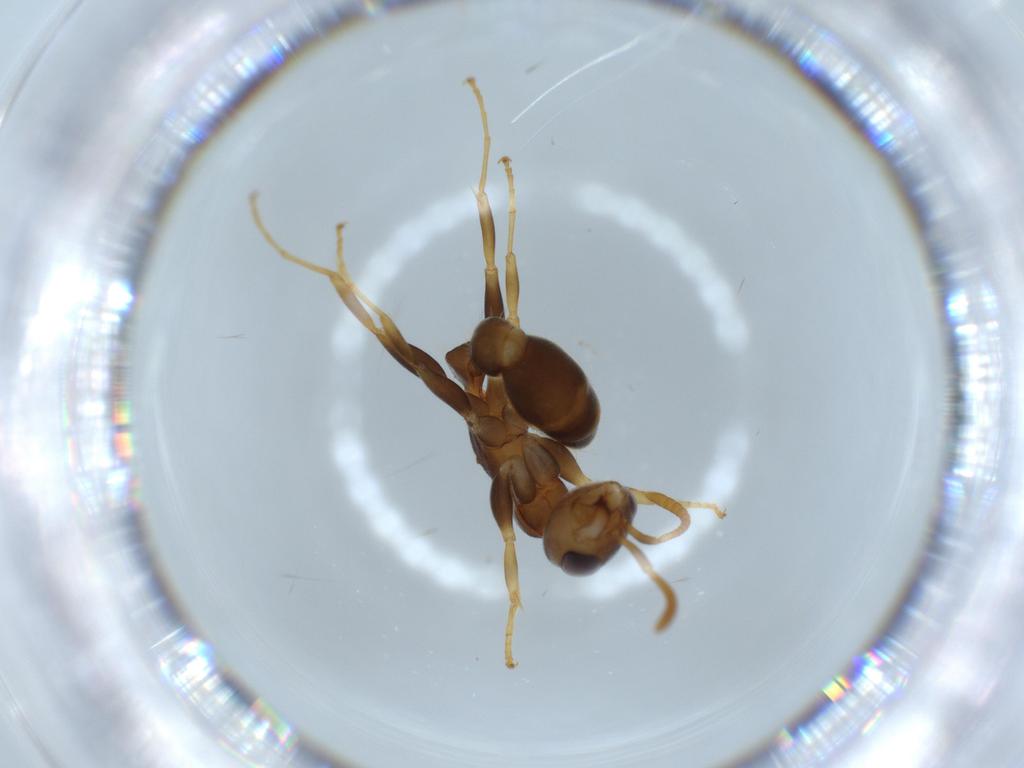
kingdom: Animalia
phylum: Arthropoda
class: Insecta
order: Hymenoptera
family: Formicidae
